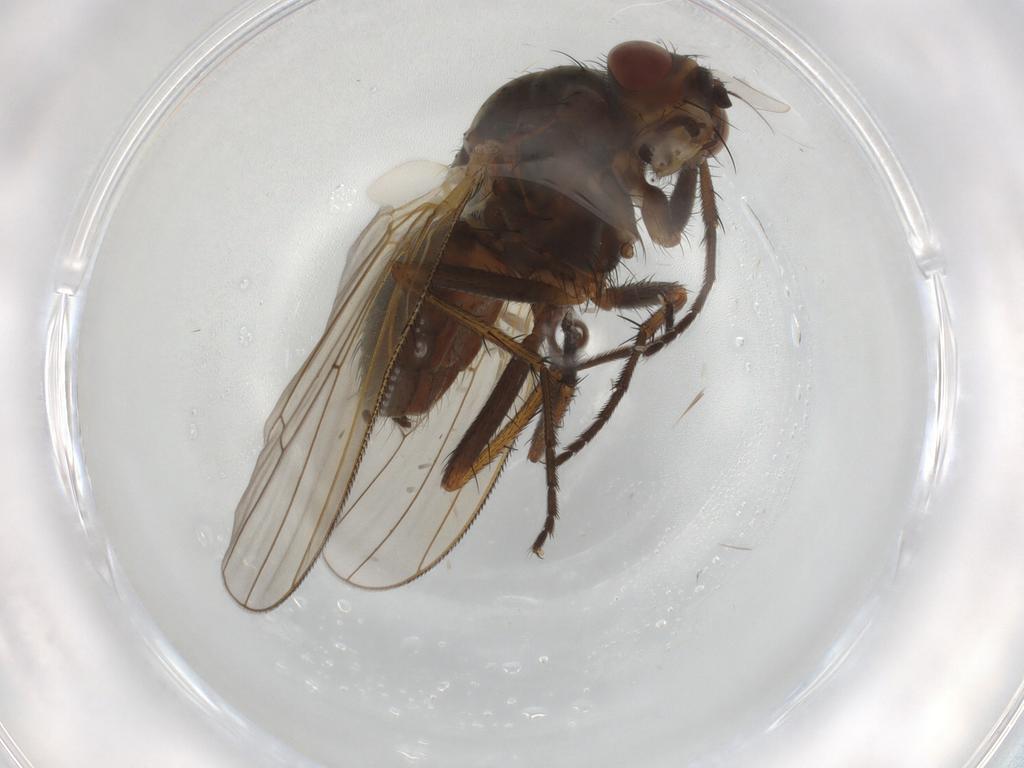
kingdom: Animalia
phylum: Arthropoda
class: Insecta
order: Diptera
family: Anthomyiidae
